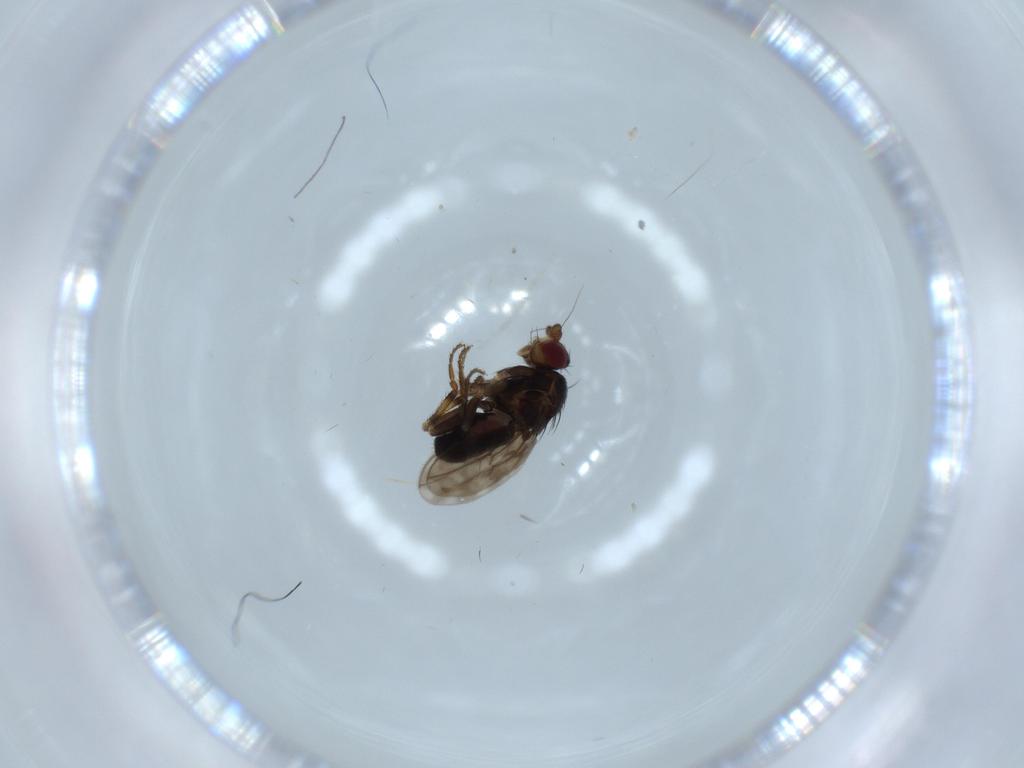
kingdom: Animalia
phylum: Arthropoda
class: Insecta
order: Diptera
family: Sphaeroceridae
